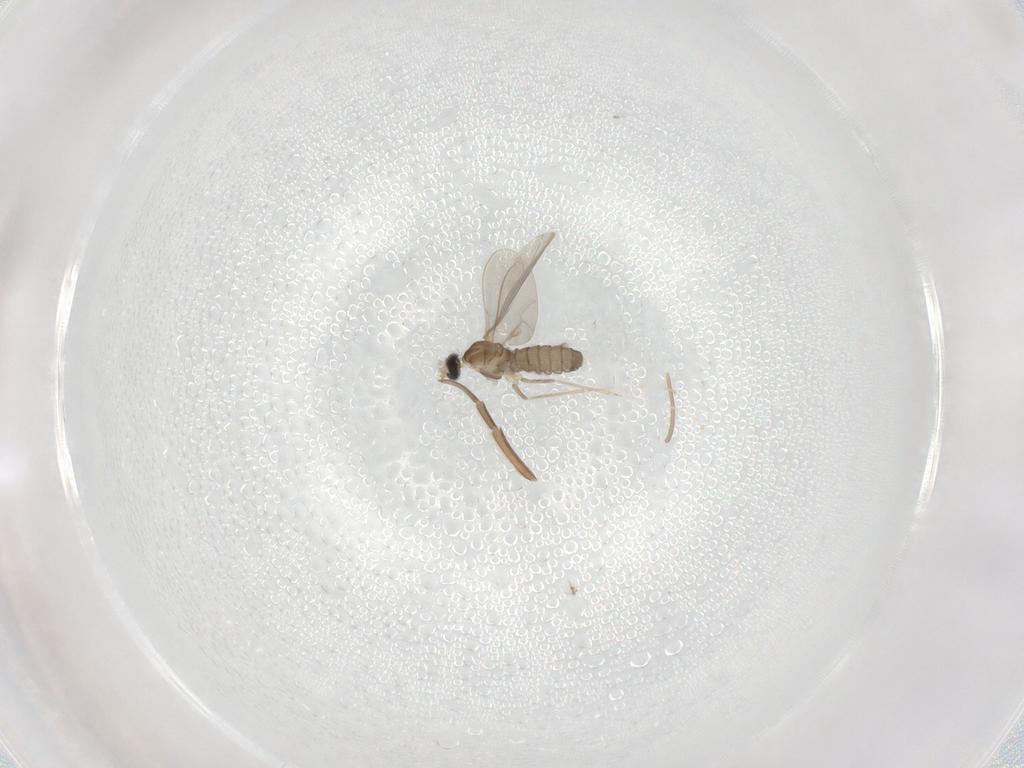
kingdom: Animalia
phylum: Arthropoda
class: Insecta
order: Diptera
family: Cecidomyiidae
